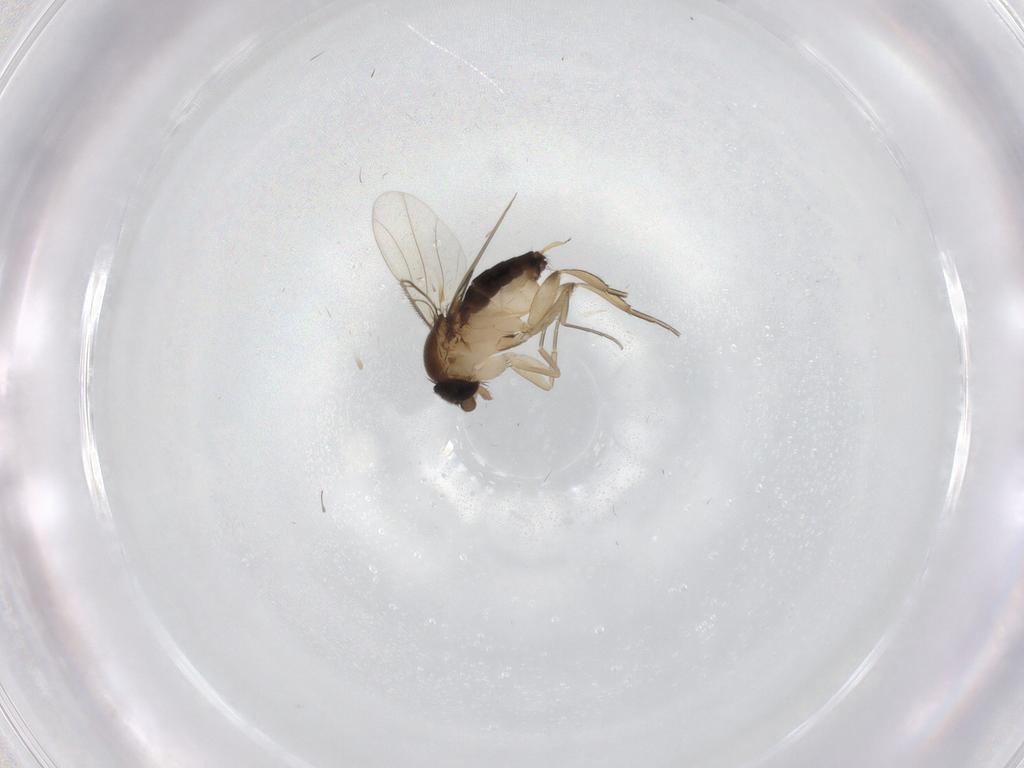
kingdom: Animalia
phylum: Arthropoda
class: Insecta
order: Diptera
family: Phoridae
